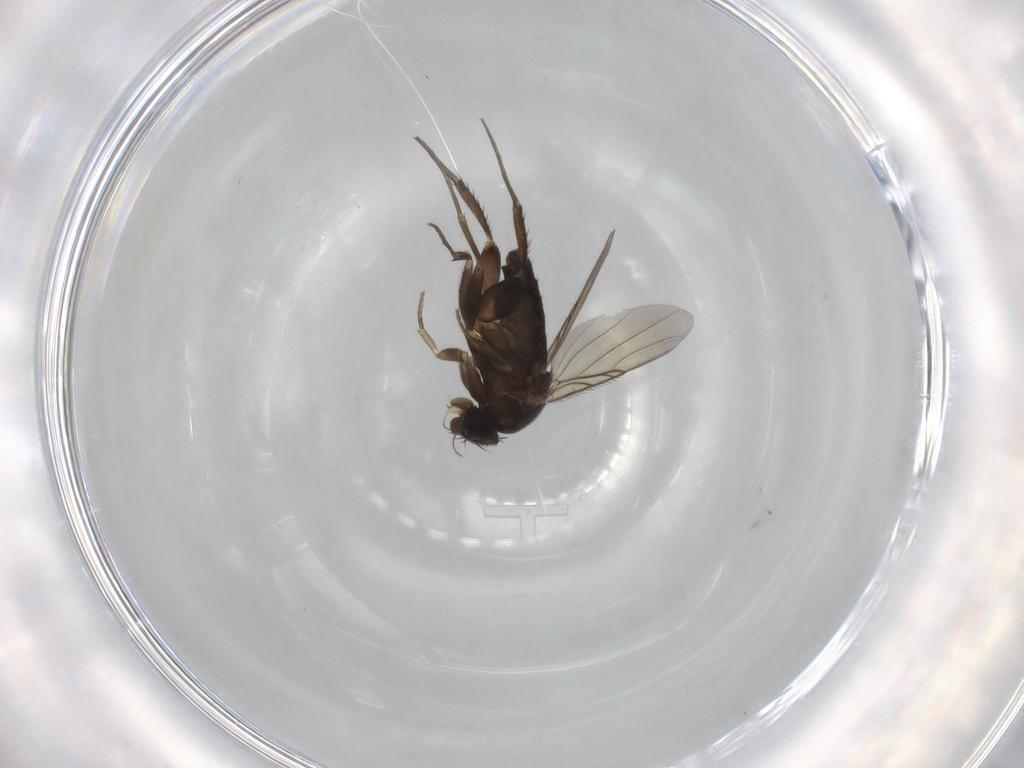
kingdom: Animalia
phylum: Arthropoda
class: Insecta
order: Diptera
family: Phoridae
